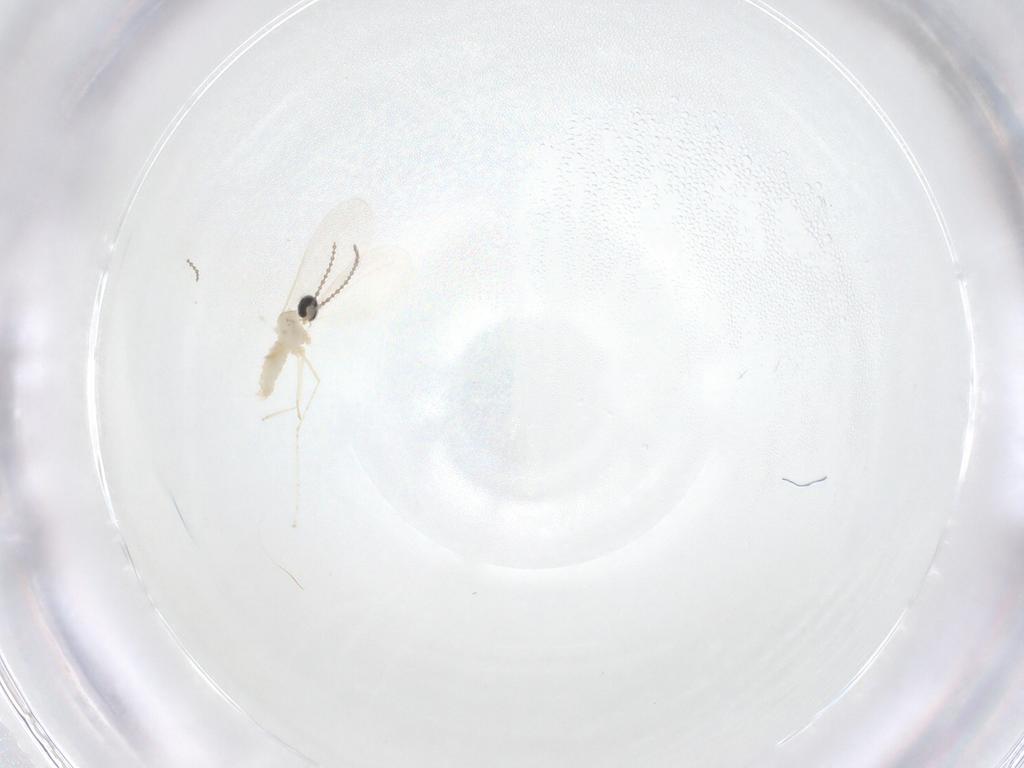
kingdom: Animalia
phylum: Arthropoda
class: Insecta
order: Diptera
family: Cecidomyiidae
